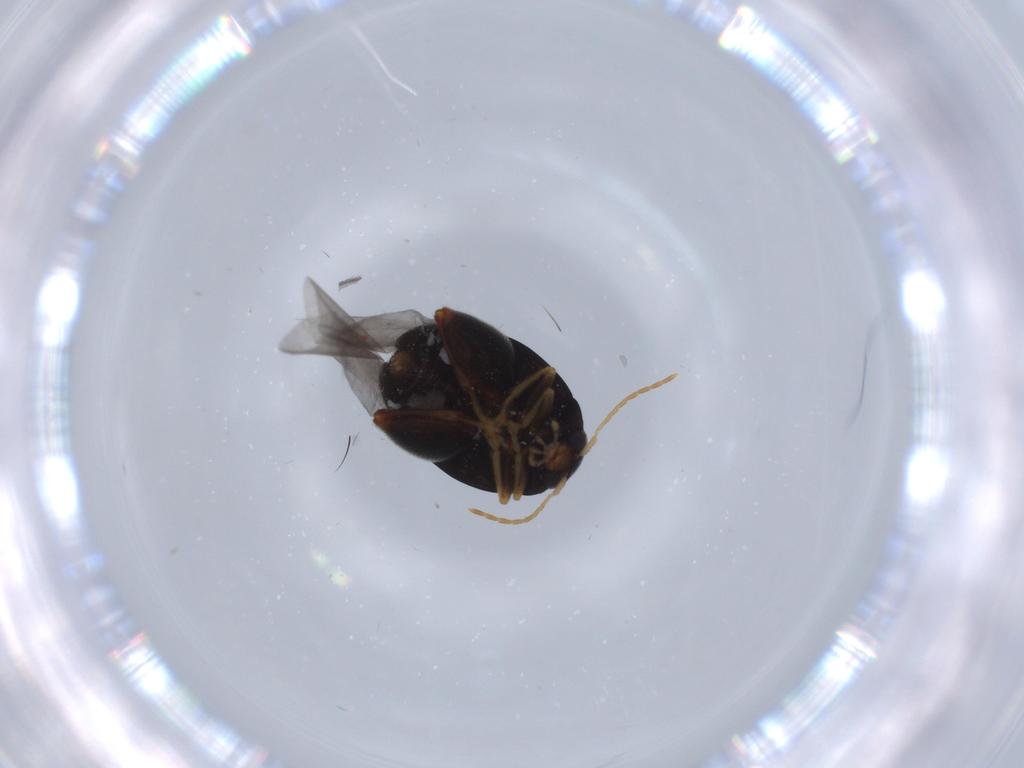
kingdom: Animalia
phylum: Arthropoda
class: Insecta
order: Coleoptera
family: Chrysomelidae
